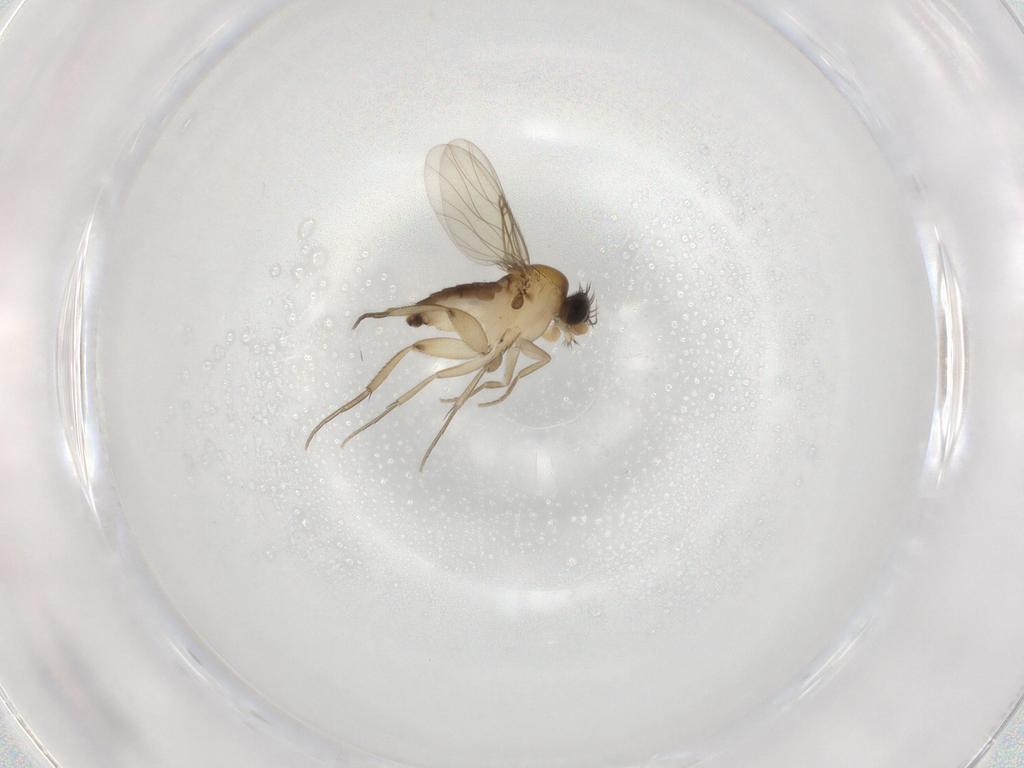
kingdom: Animalia
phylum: Arthropoda
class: Insecta
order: Diptera
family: Phoridae
